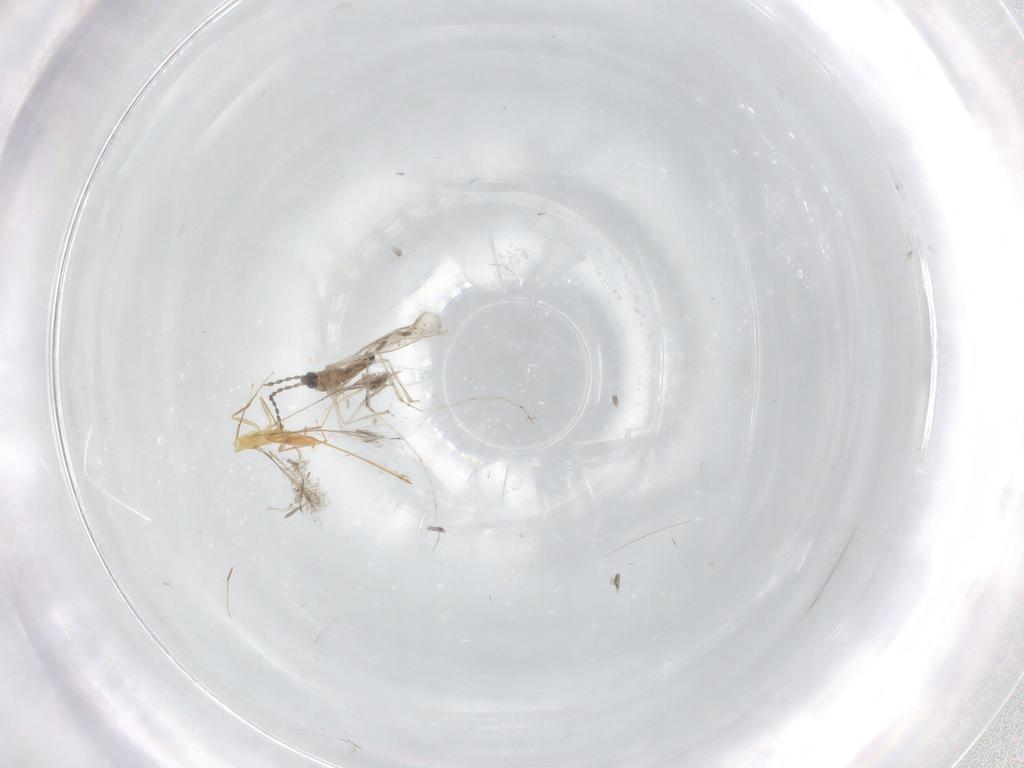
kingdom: Animalia
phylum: Arthropoda
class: Insecta
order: Diptera
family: Cecidomyiidae
